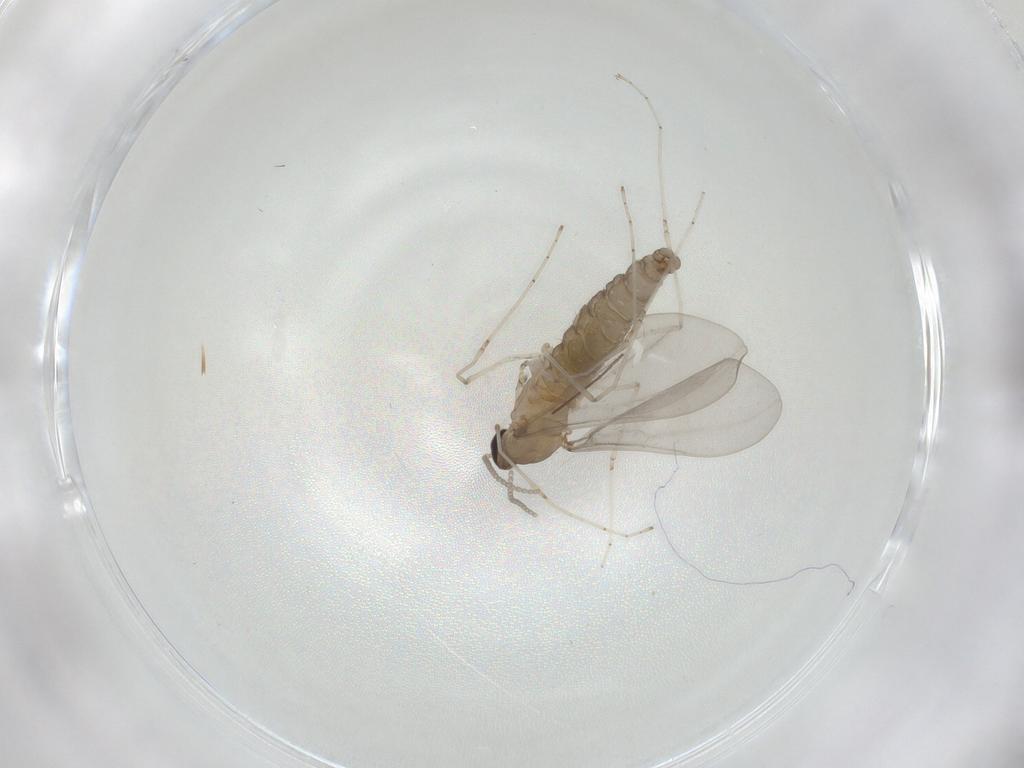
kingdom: Animalia
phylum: Arthropoda
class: Insecta
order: Diptera
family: Cecidomyiidae
